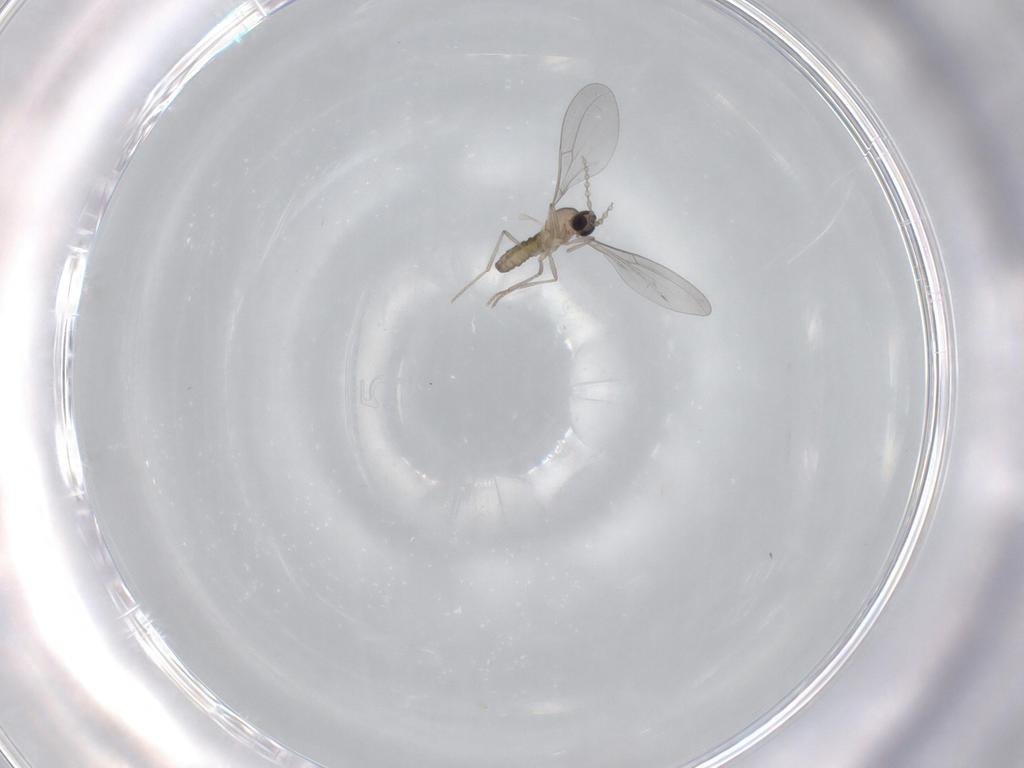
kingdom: Animalia
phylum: Arthropoda
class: Insecta
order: Diptera
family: Cecidomyiidae
